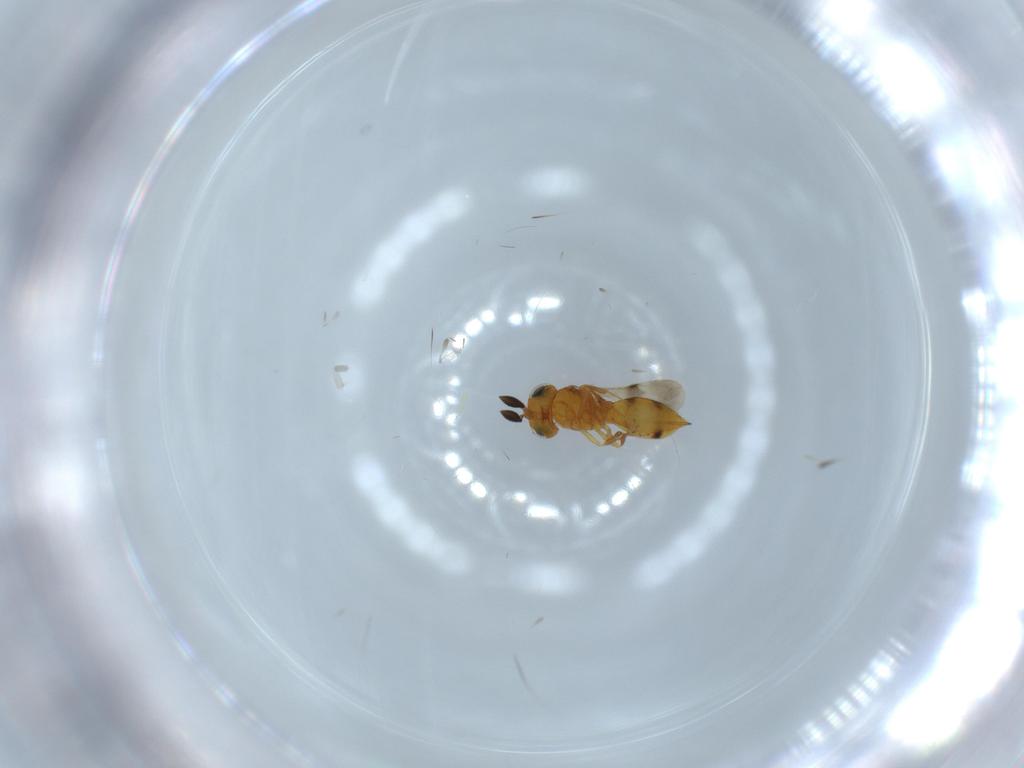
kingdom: Animalia
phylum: Arthropoda
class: Insecta
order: Hymenoptera
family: Scelionidae
